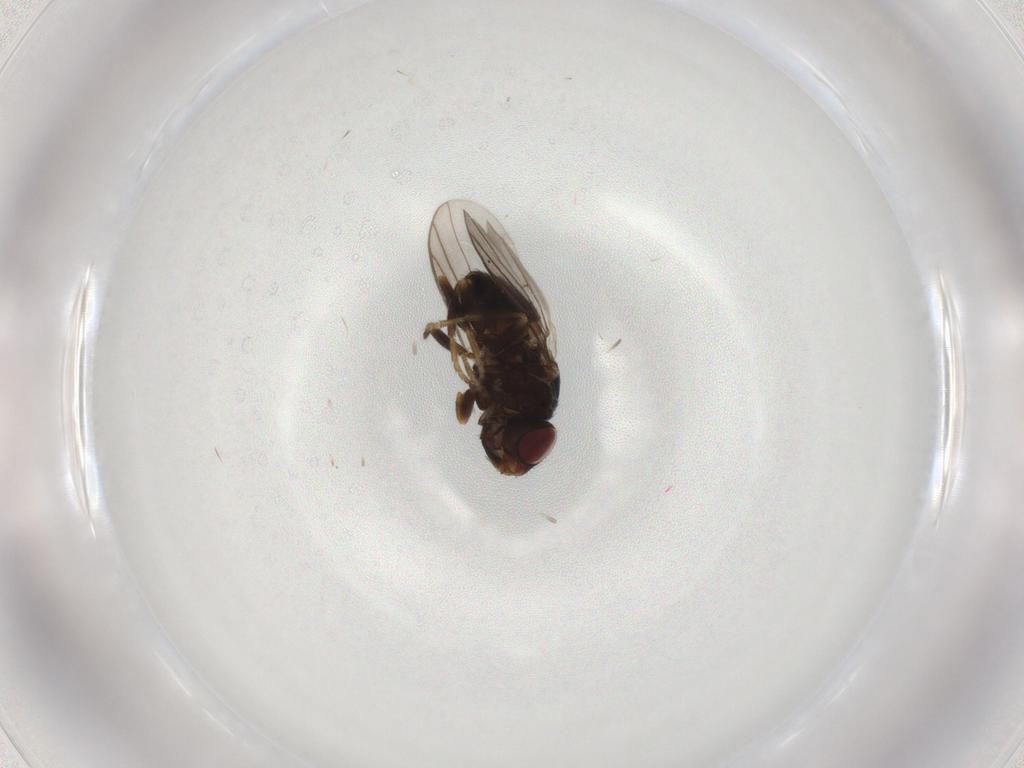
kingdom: Animalia
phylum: Arthropoda
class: Insecta
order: Diptera
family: Chloropidae
